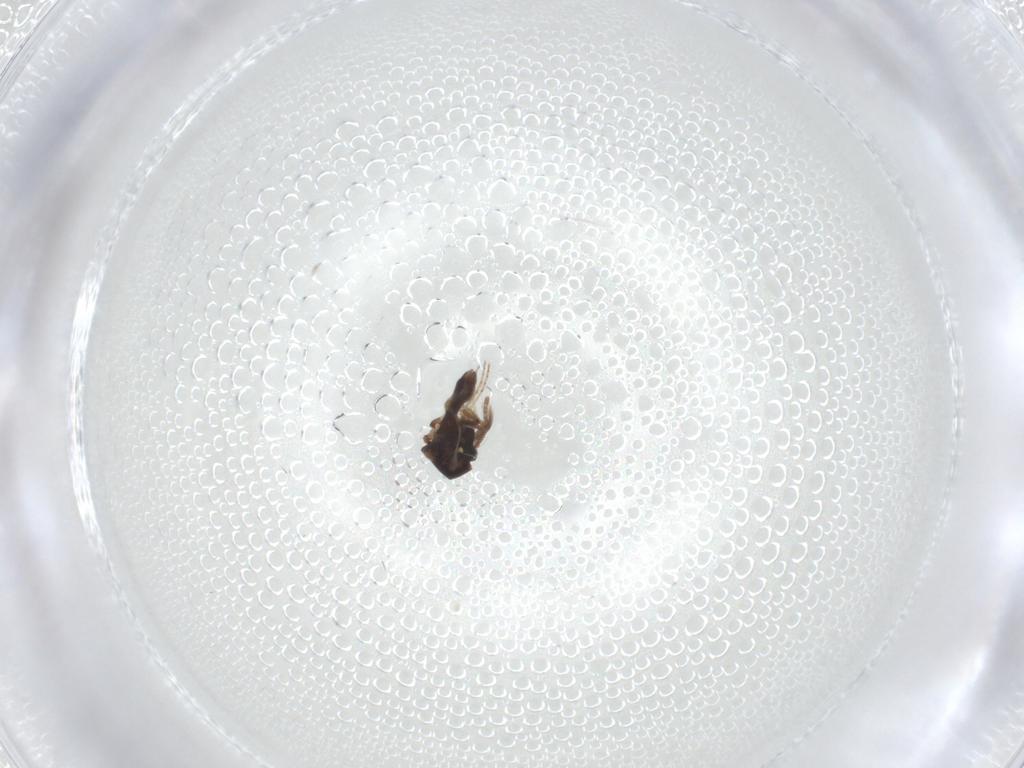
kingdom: Animalia
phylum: Arthropoda
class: Insecta
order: Diptera
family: Ceratopogonidae
